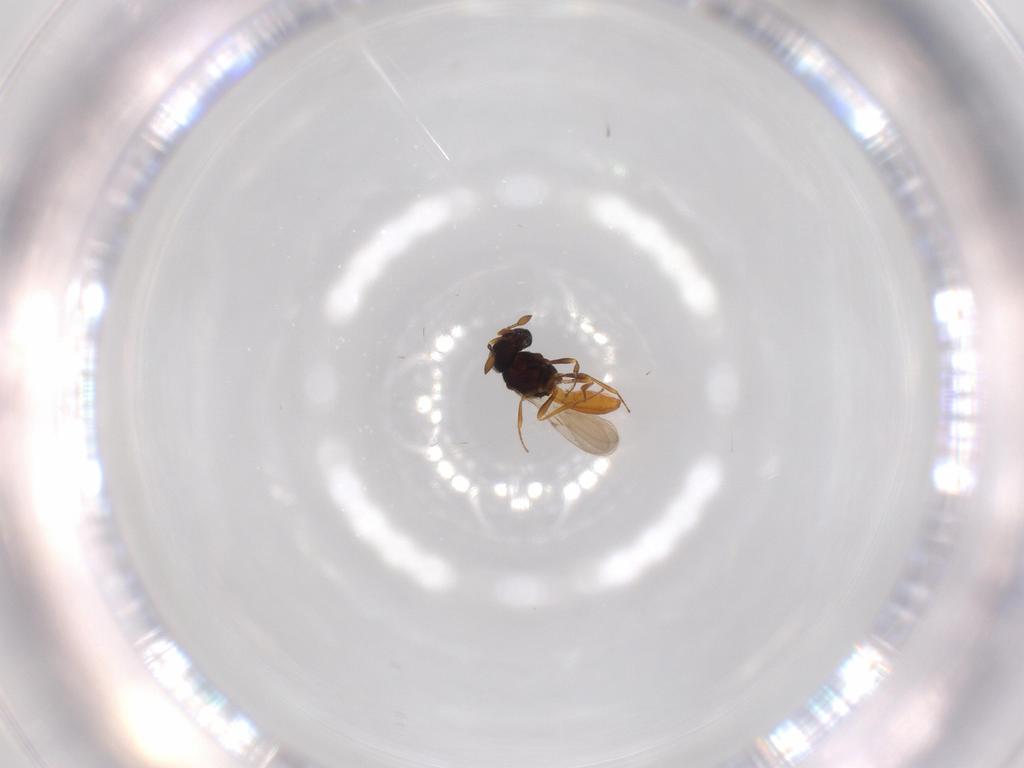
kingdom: Animalia
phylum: Arthropoda
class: Insecta
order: Hymenoptera
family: Scelionidae
